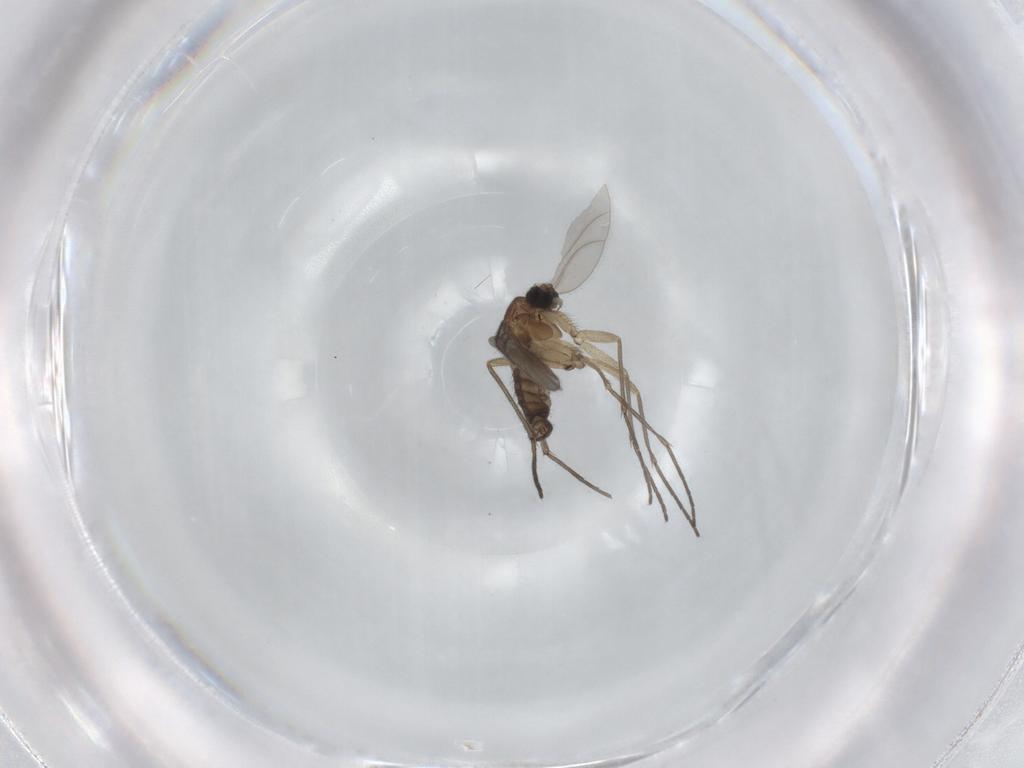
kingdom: Animalia
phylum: Arthropoda
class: Insecta
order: Diptera
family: Sciaridae
